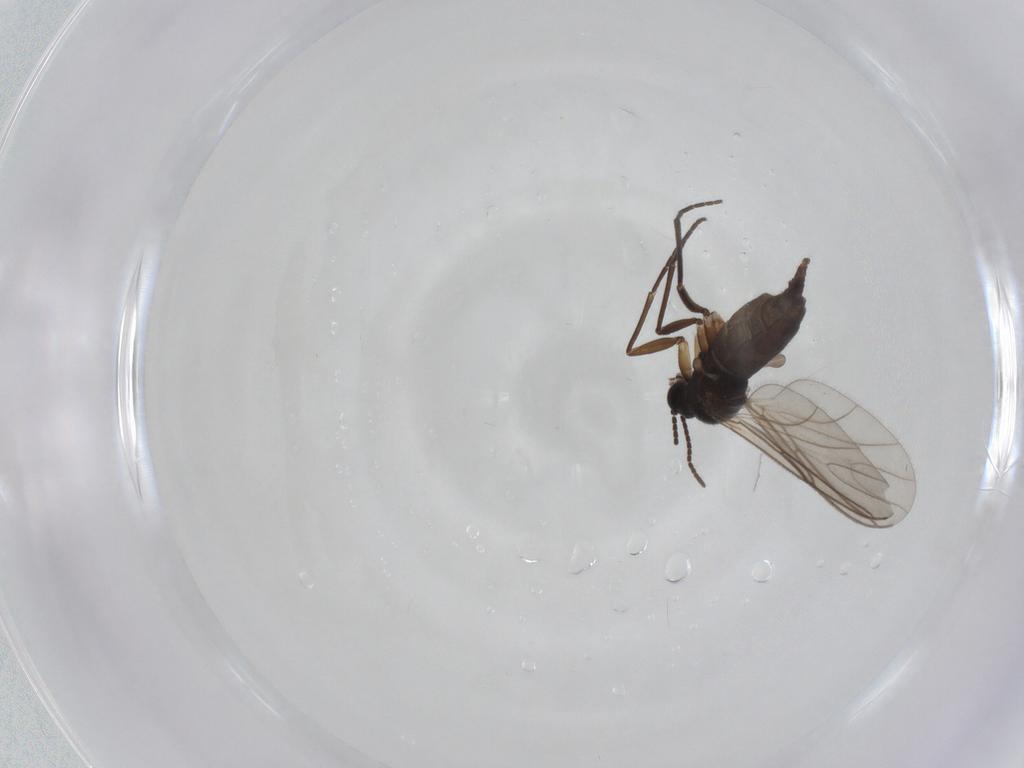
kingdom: Animalia
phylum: Arthropoda
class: Insecta
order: Diptera
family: Sciaridae
